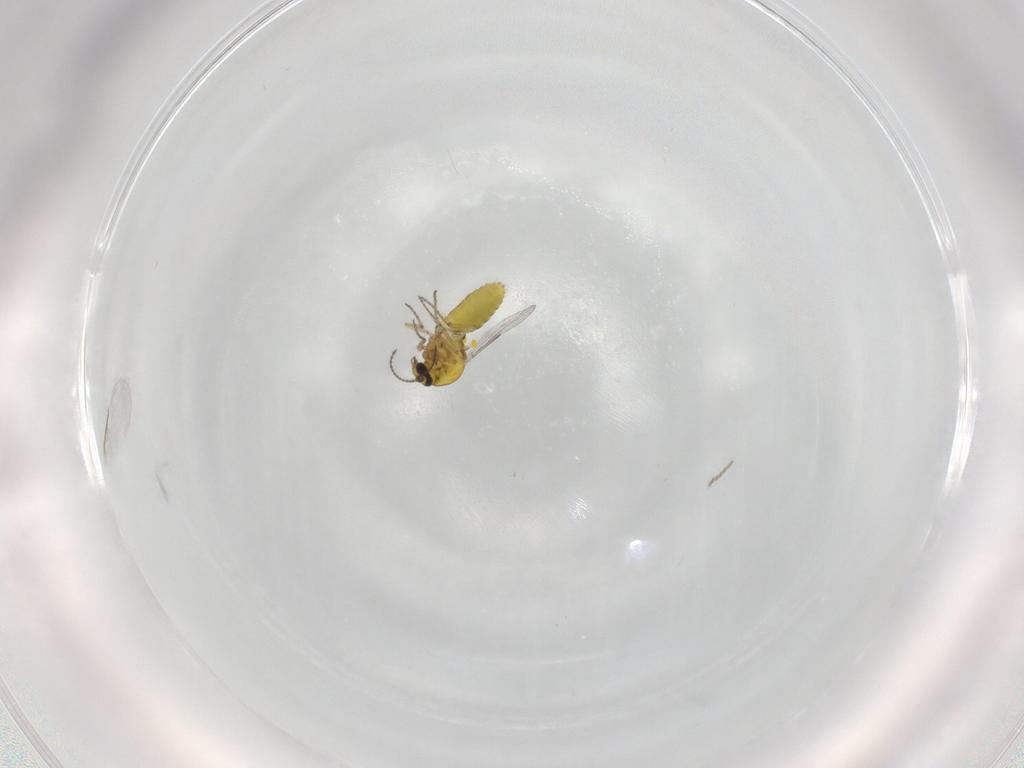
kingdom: Animalia
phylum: Arthropoda
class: Insecta
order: Diptera
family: Ceratopogonidae
